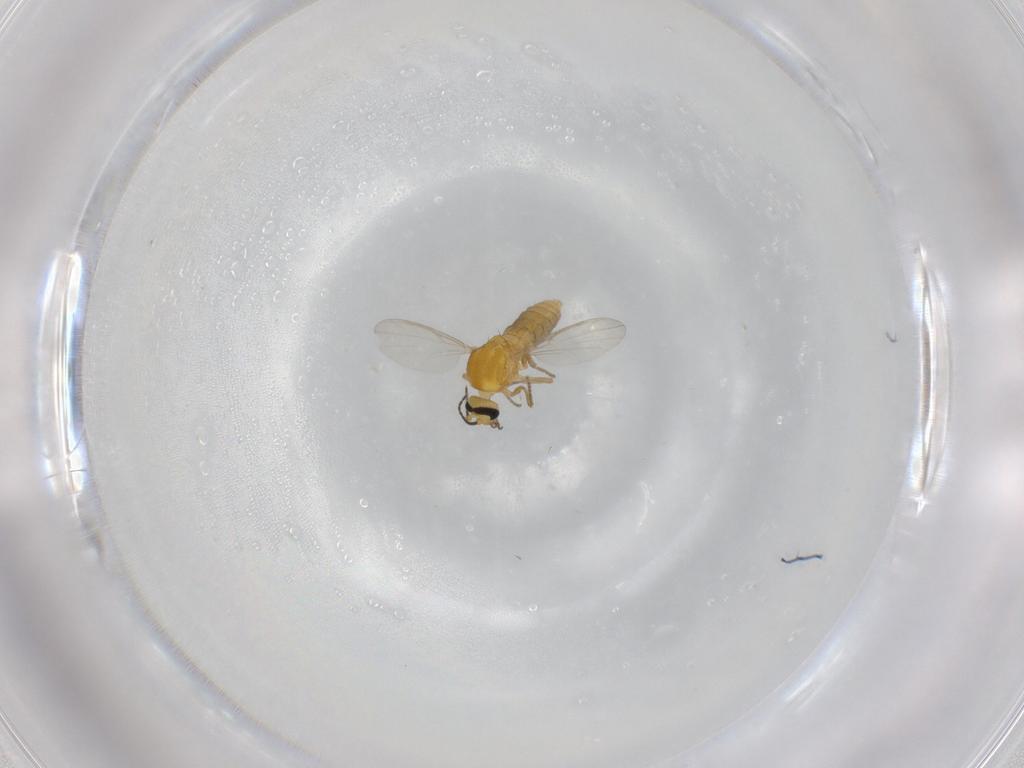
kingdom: Animalia
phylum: Arthropoda
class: Insecta
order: Diptera
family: Ceratopogonidae
